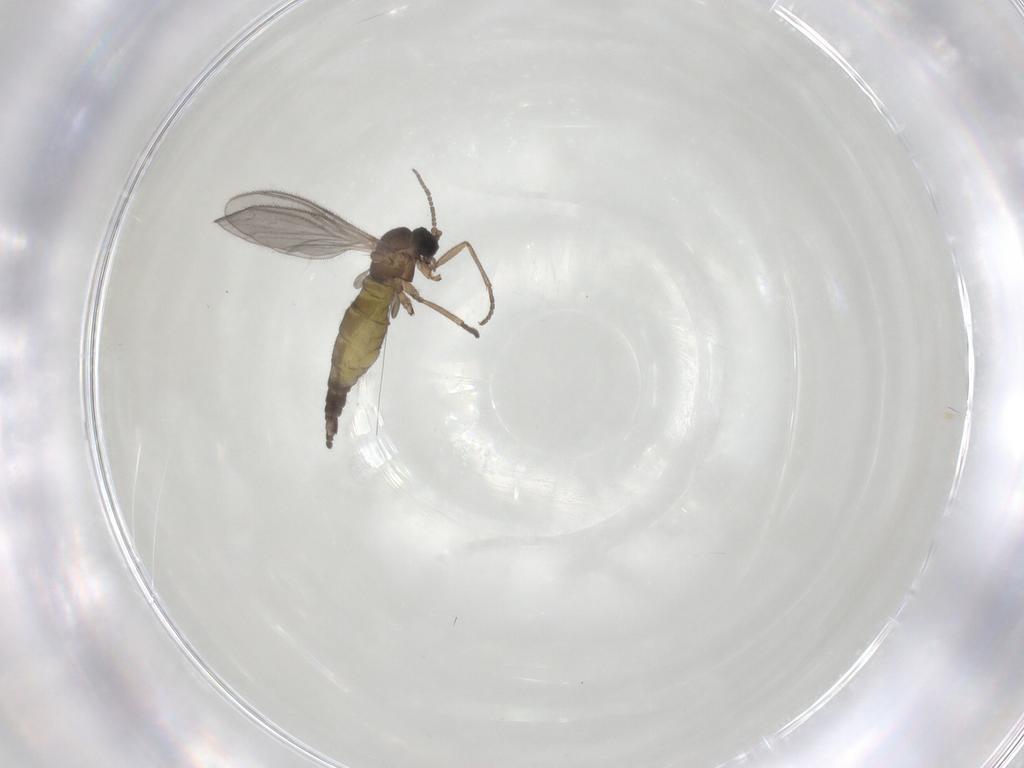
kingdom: Animalia
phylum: Arthropoda
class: Insecta
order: Diptera
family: Sciaridae
